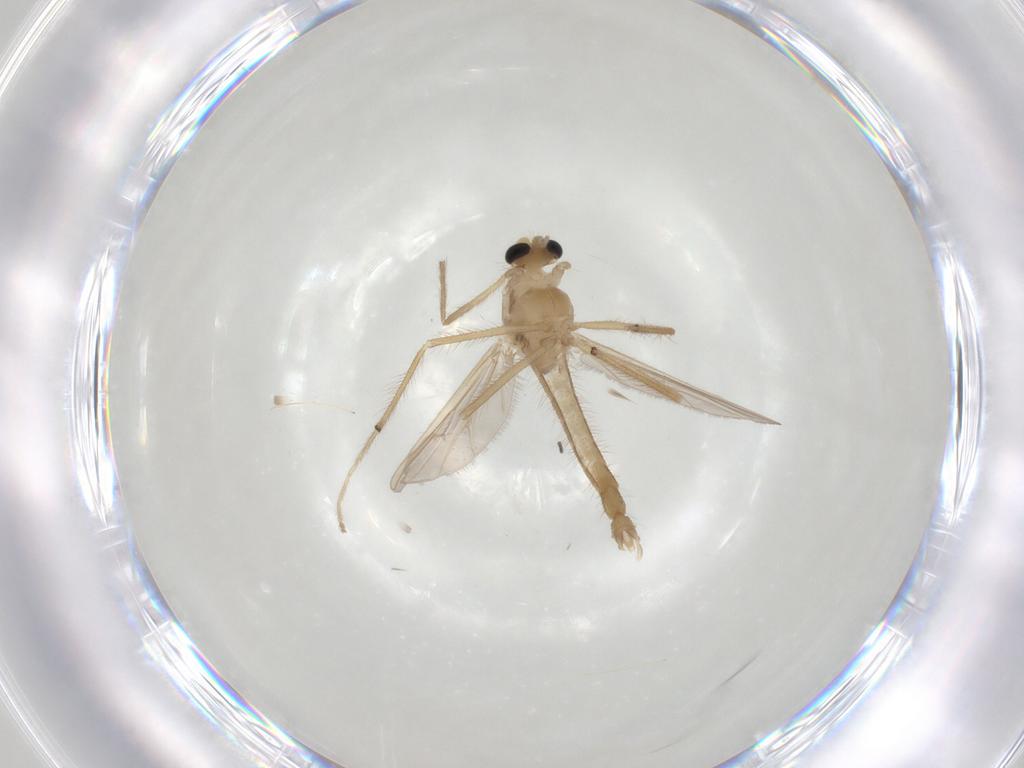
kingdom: Animalia
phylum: Arthropoda
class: Insecta
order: Diptera
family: Chironomidae
